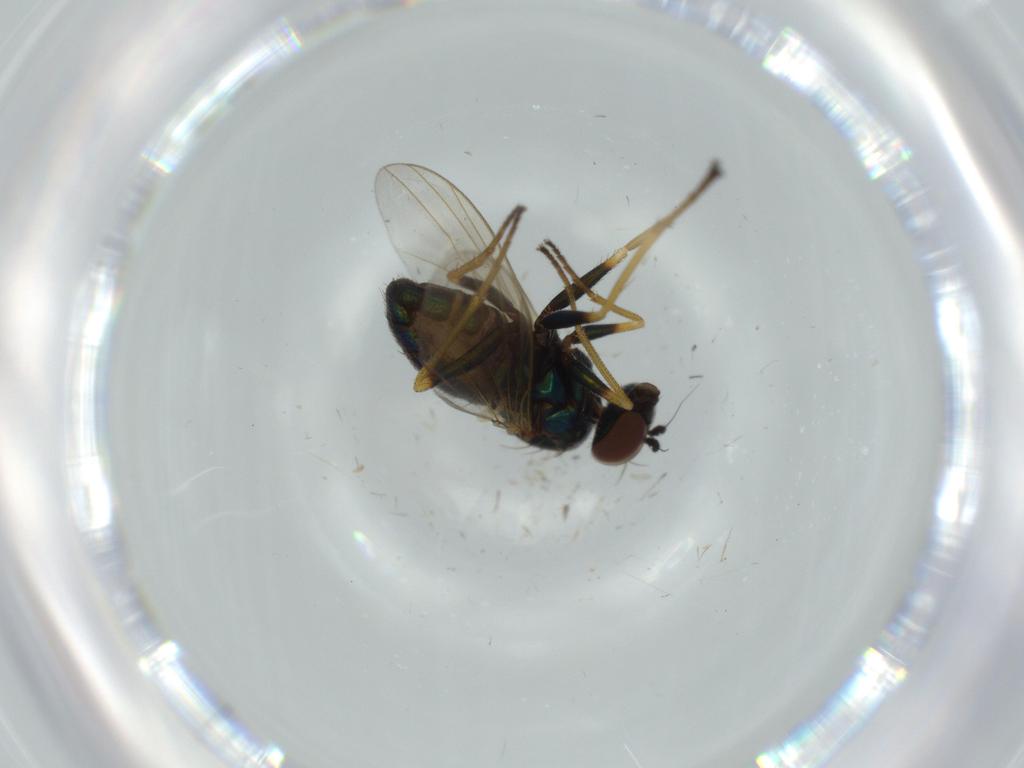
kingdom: Animalia
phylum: Arthropoda
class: Insecta
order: Diptera
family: Dolichopodidae
